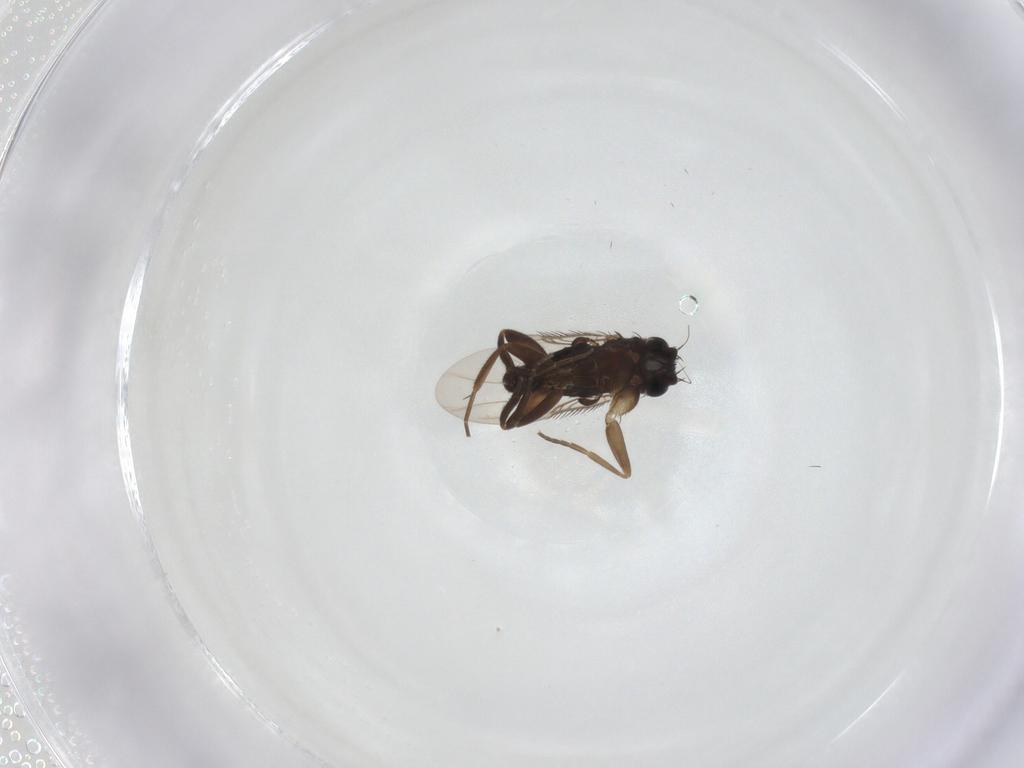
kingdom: Animalia
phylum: Arthropoda
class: Insecta
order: Diptera
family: Phoridae
